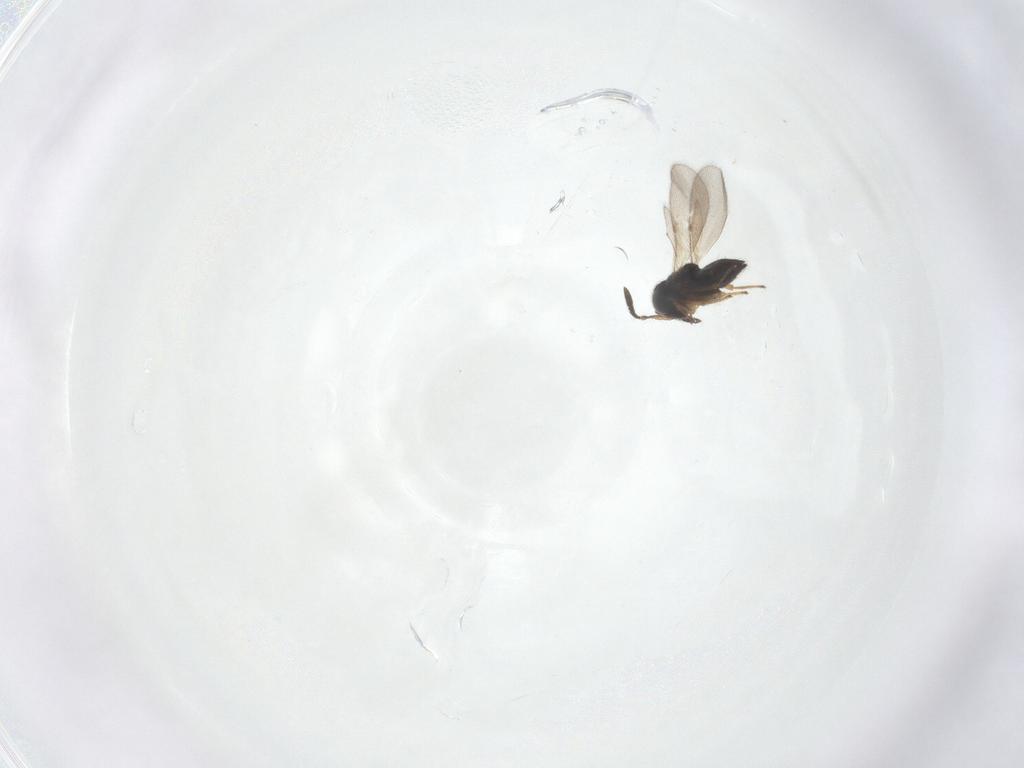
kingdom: Animalia
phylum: Arthropoda
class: Insecta
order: Hymenoptera
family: Encyrtidae
